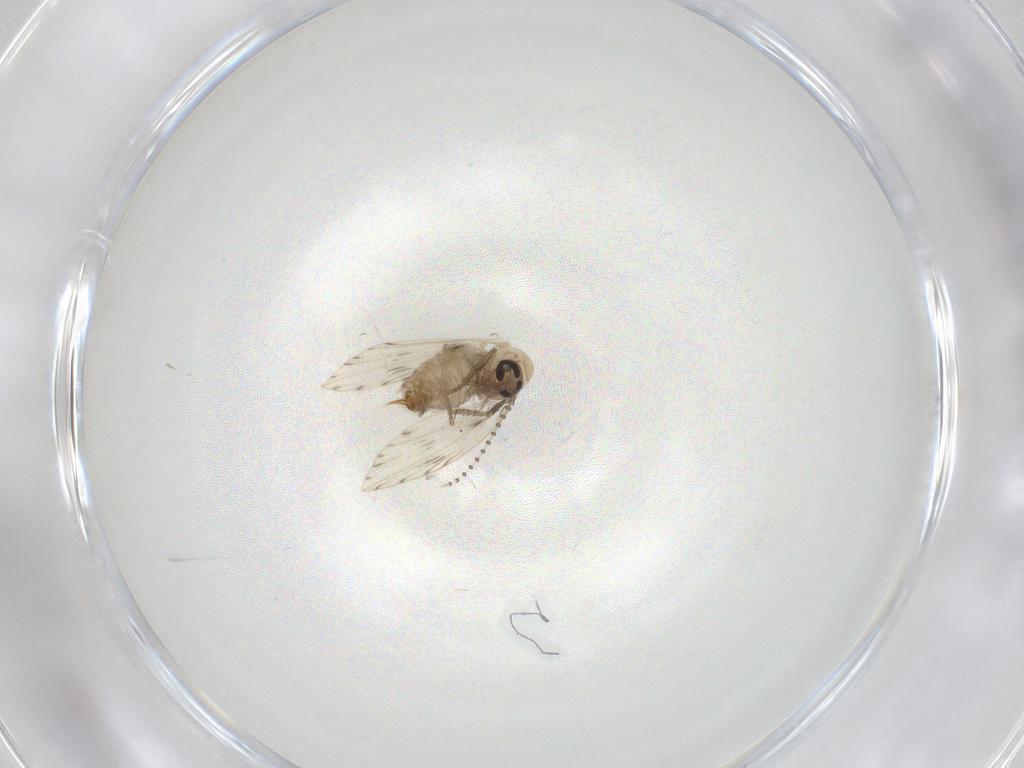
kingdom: Animalia
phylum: Arthropoda
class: Insecta
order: Diptera
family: Psychodidae
